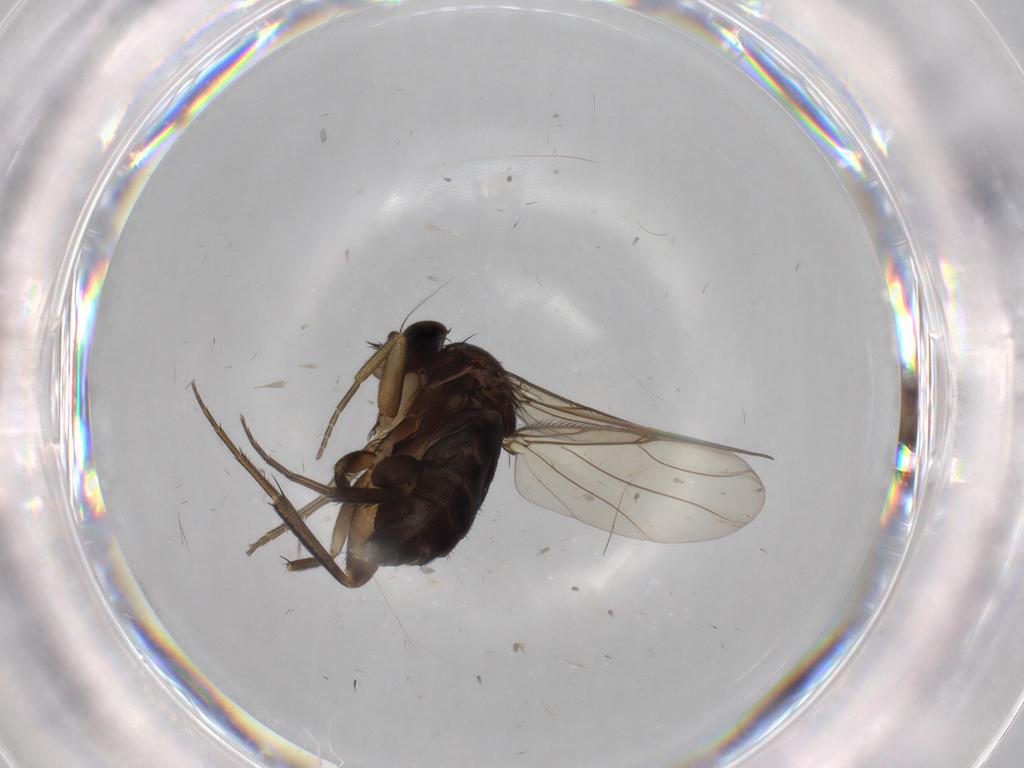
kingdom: Animalia
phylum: Arthropoda
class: Insecta
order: Diptera
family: Phoridae
